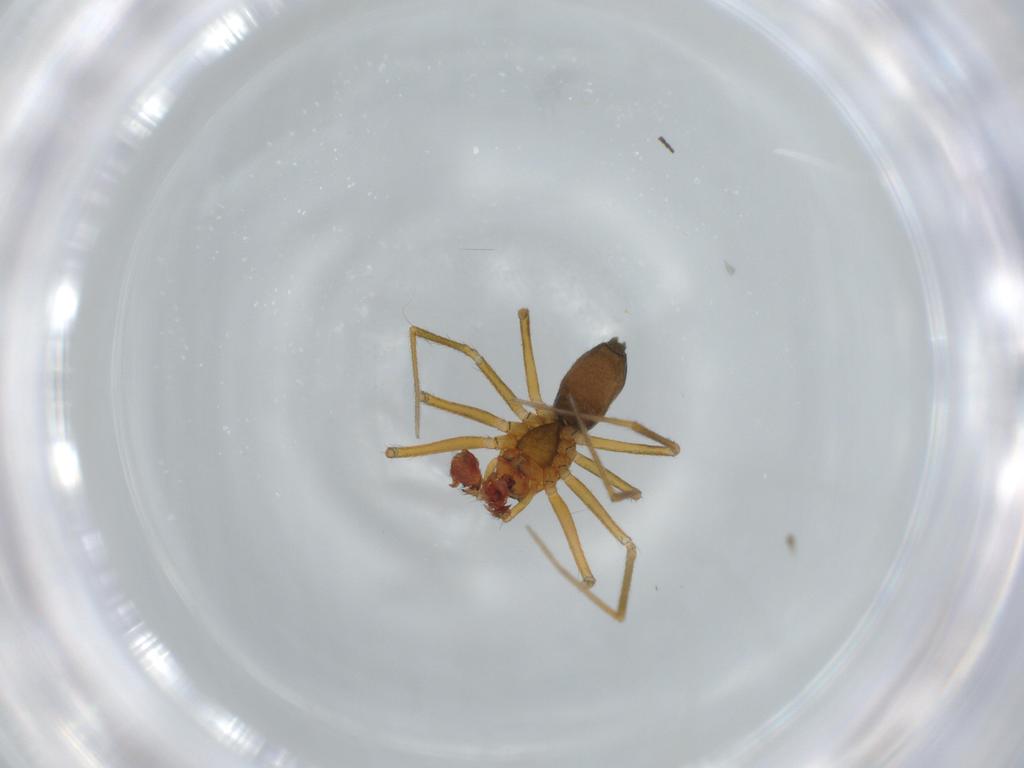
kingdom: Animalia
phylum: Arthropoda
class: Arachnida
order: Araneae
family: Linyphiidae
